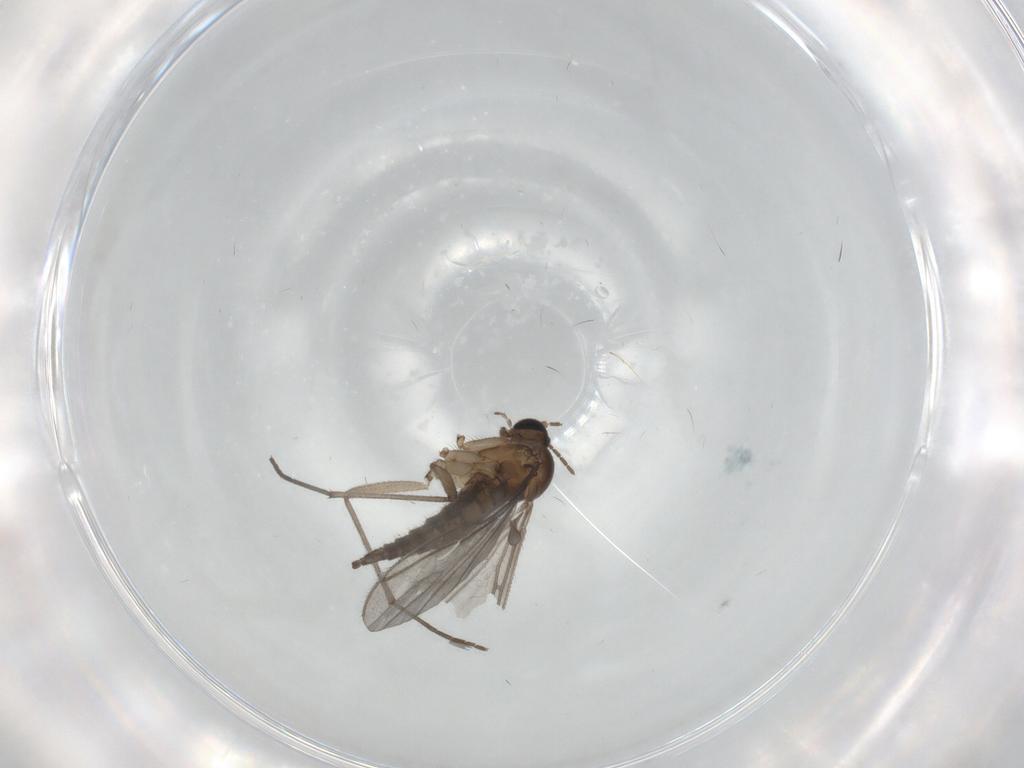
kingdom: Animalia
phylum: Arthropoda
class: Insecta
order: Diptera
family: Sciaridae
